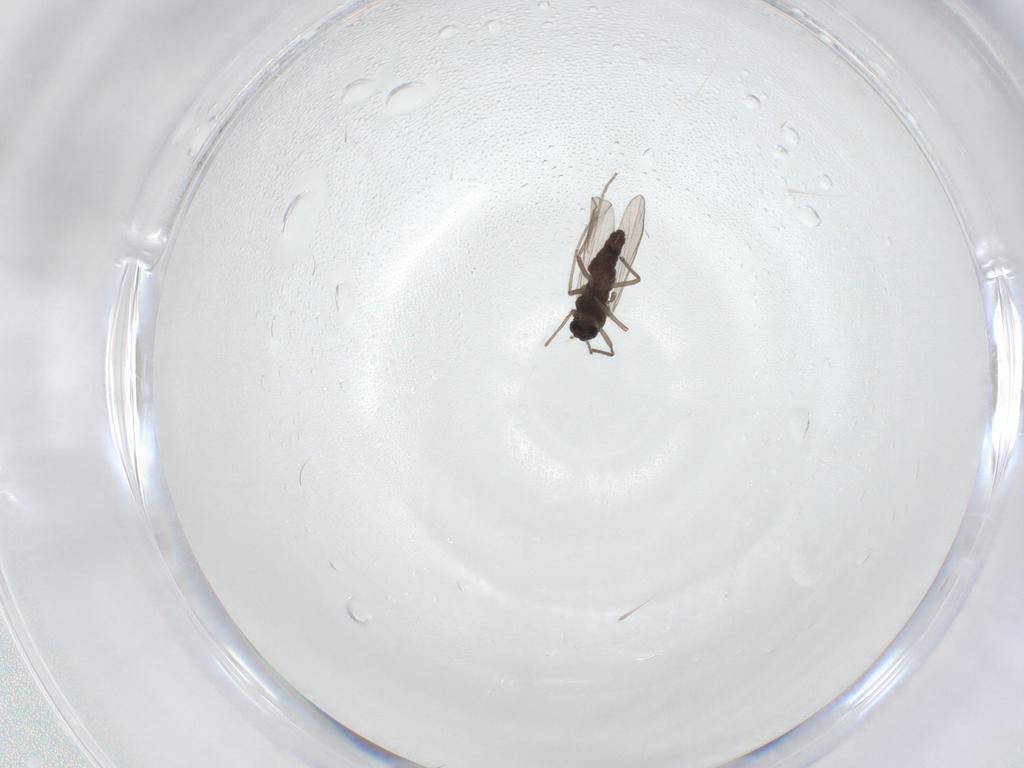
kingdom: Animalia
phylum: Arthropoda
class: Insecta
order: Diptera
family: Chironomidae
